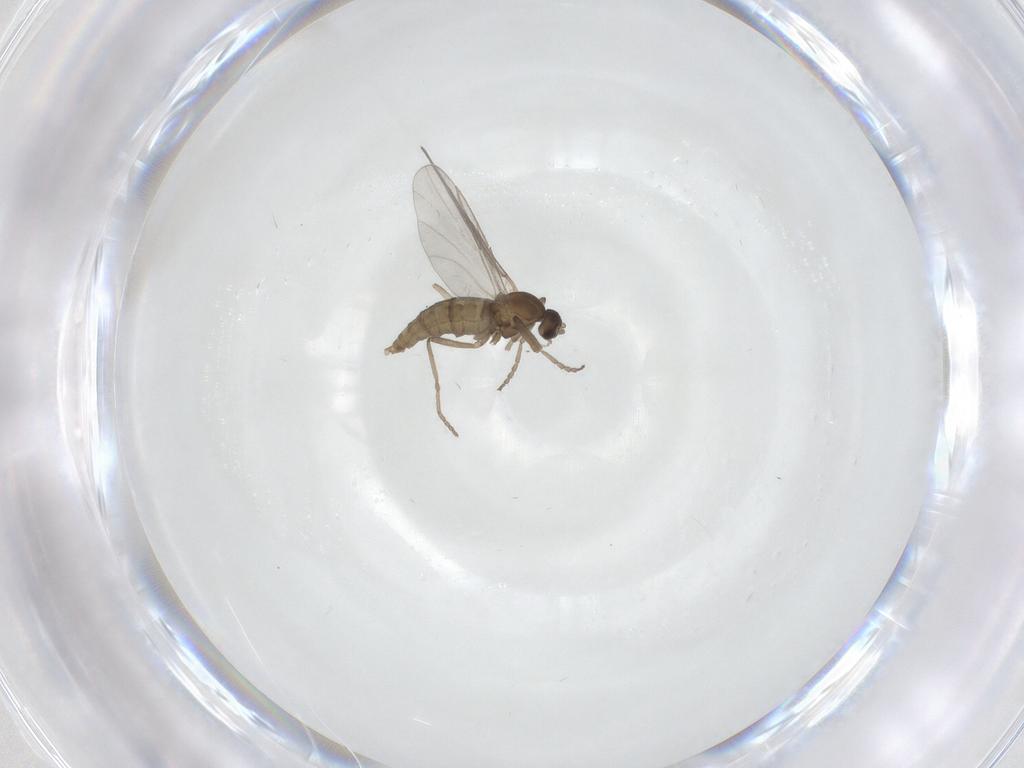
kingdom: Animalia
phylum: Arthropoda
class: Insecta
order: Diptera
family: Cecidomyiidae
